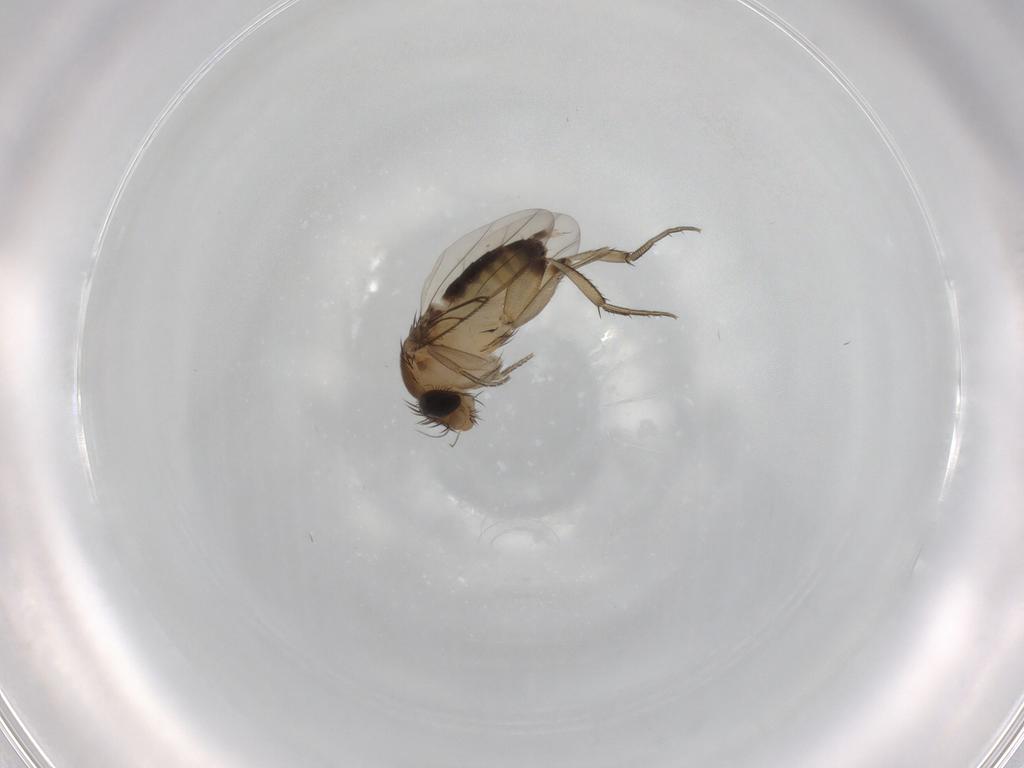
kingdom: Animalia
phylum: Arthropoda
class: Insecta
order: Diptera
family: Phoridae
